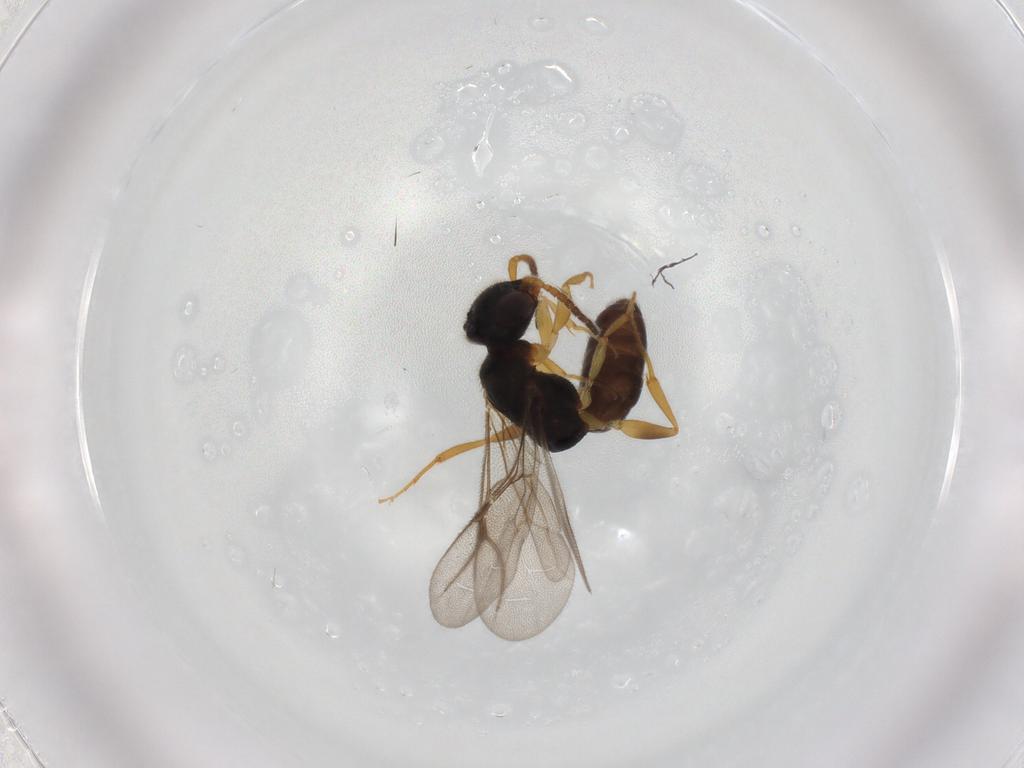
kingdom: Animalia
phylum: Arthropoda
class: Insecta
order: Hymenoptera
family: Bethylidae
